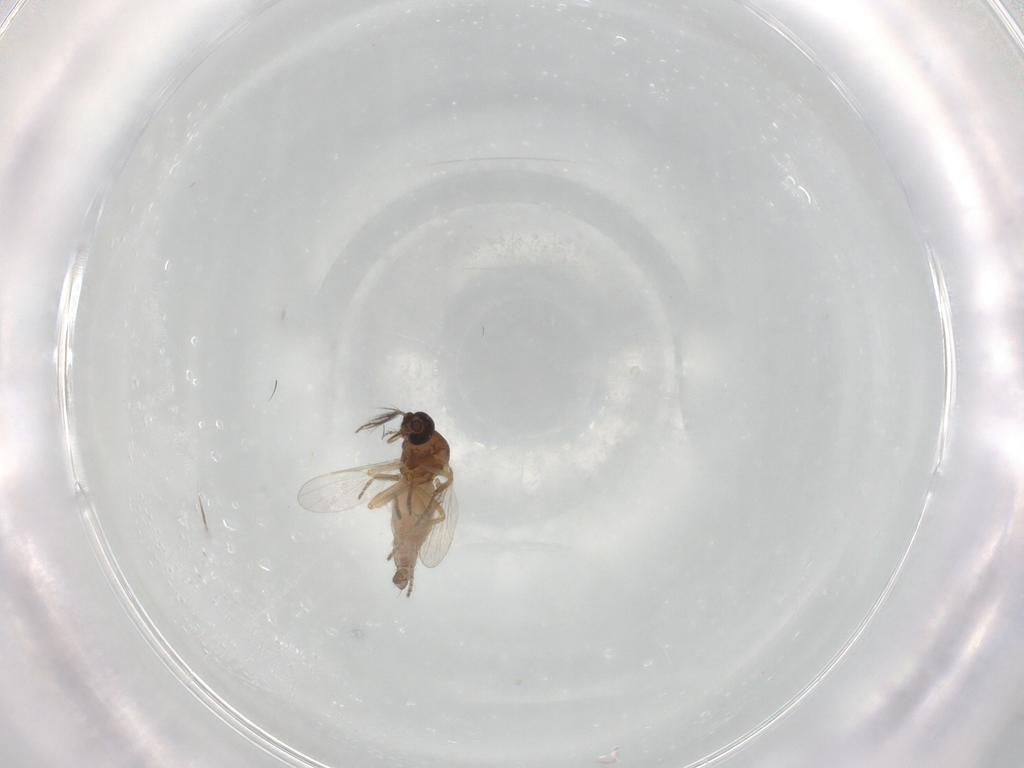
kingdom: Animalia
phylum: Arthropoda
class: Insecta
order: Diptera
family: Ceratopogonidae
